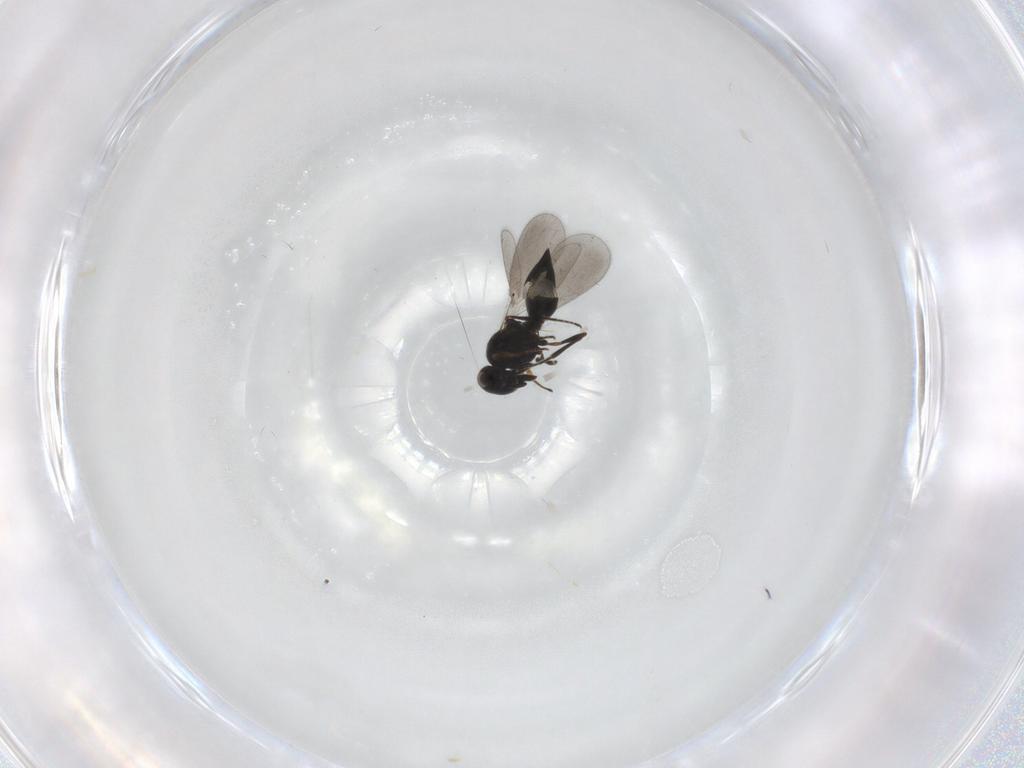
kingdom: Animalia
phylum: Arthropoda
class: Insecta
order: Hymenoptera
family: Platygastridae
